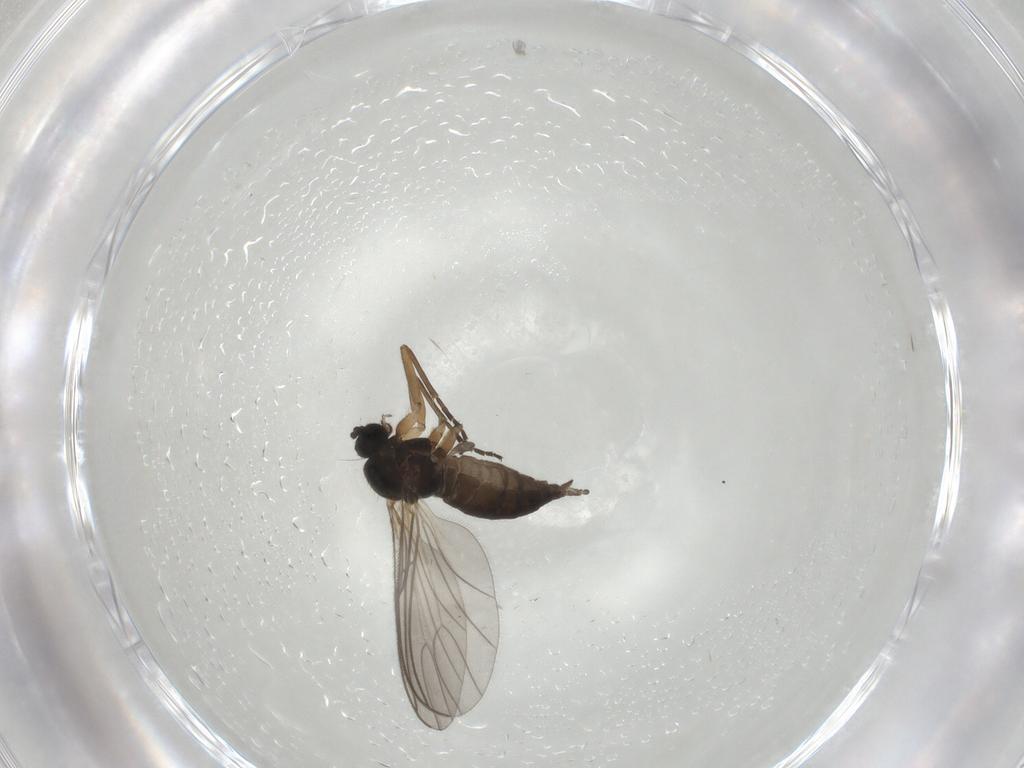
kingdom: Animalia
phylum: Arthropoda
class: Insecta
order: Diptera
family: Sciaridae
